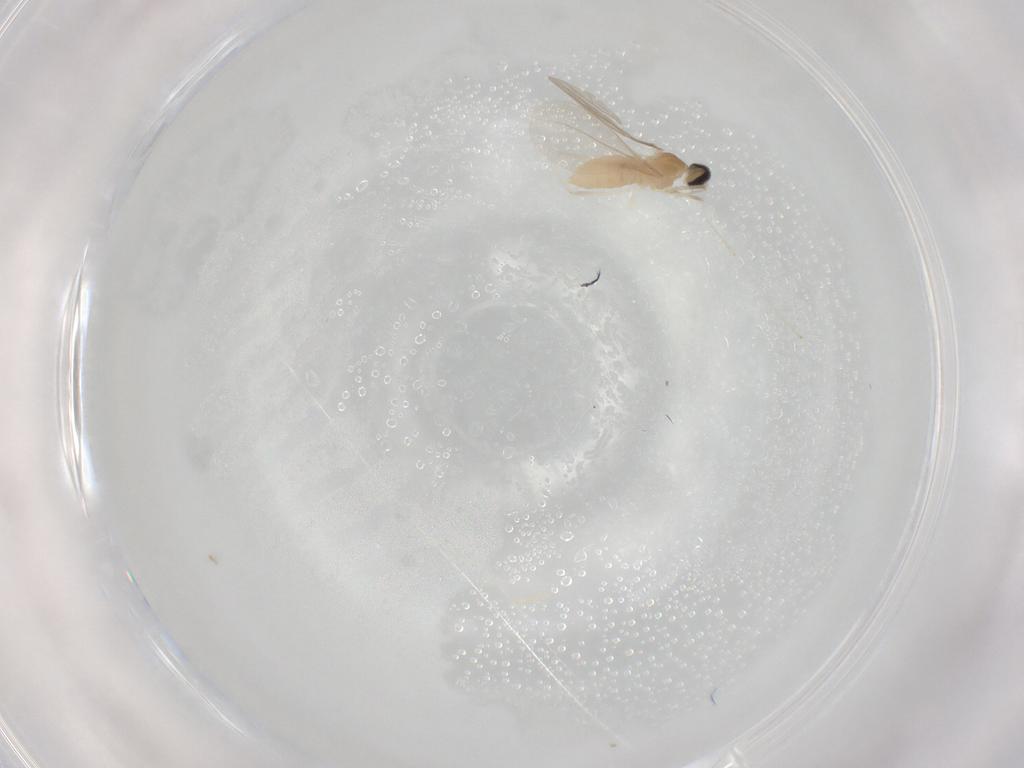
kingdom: Animalia
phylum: Arthropoda
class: Insecta
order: Diptera
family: Cecidomyiidae
